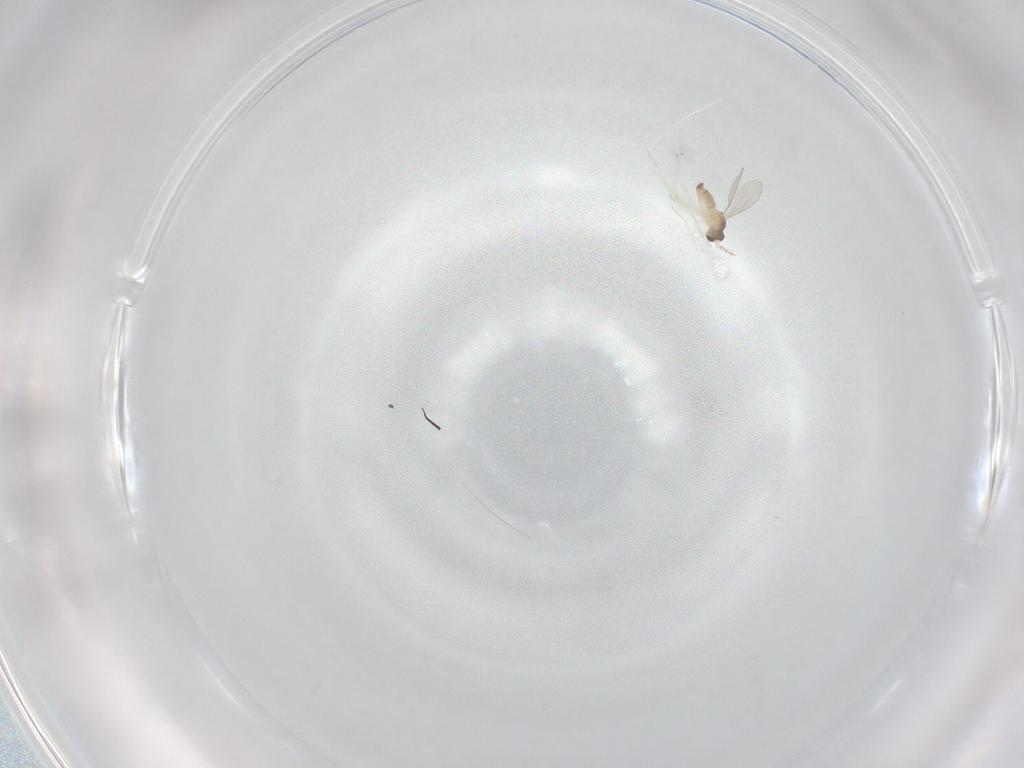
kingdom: Animalia
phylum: Arthropoda
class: Insecta
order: Diptera
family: Cecidomyiidae
